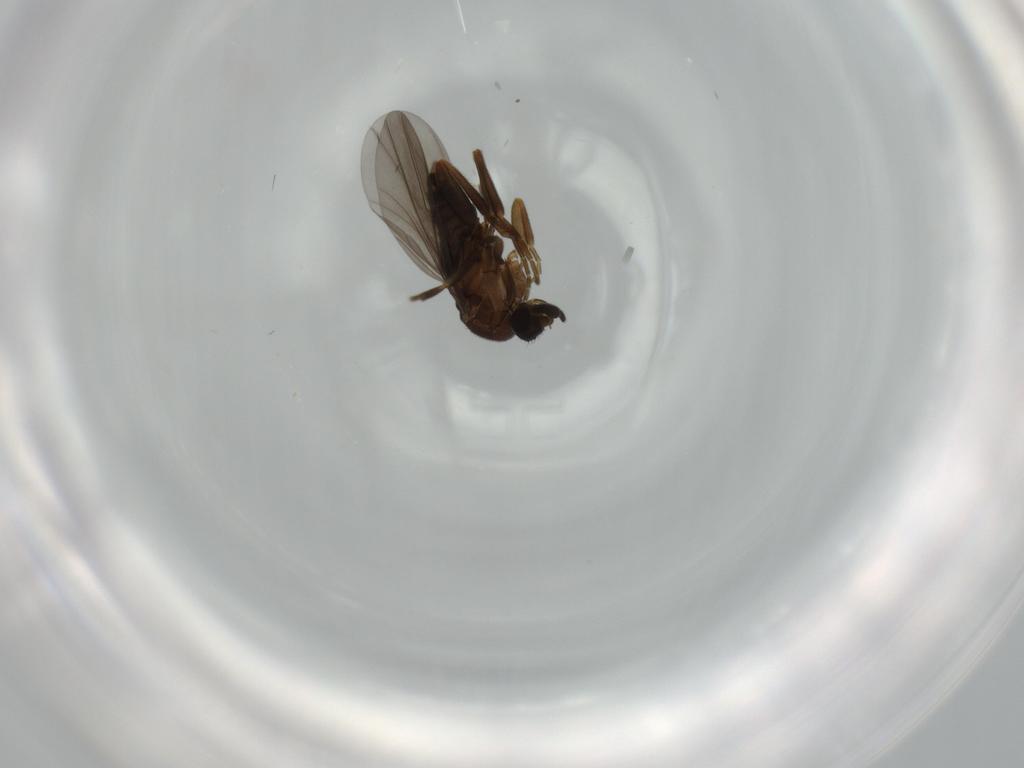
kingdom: Animalia
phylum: Arthropoda
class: Insecta
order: Diptera
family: Phoridae
